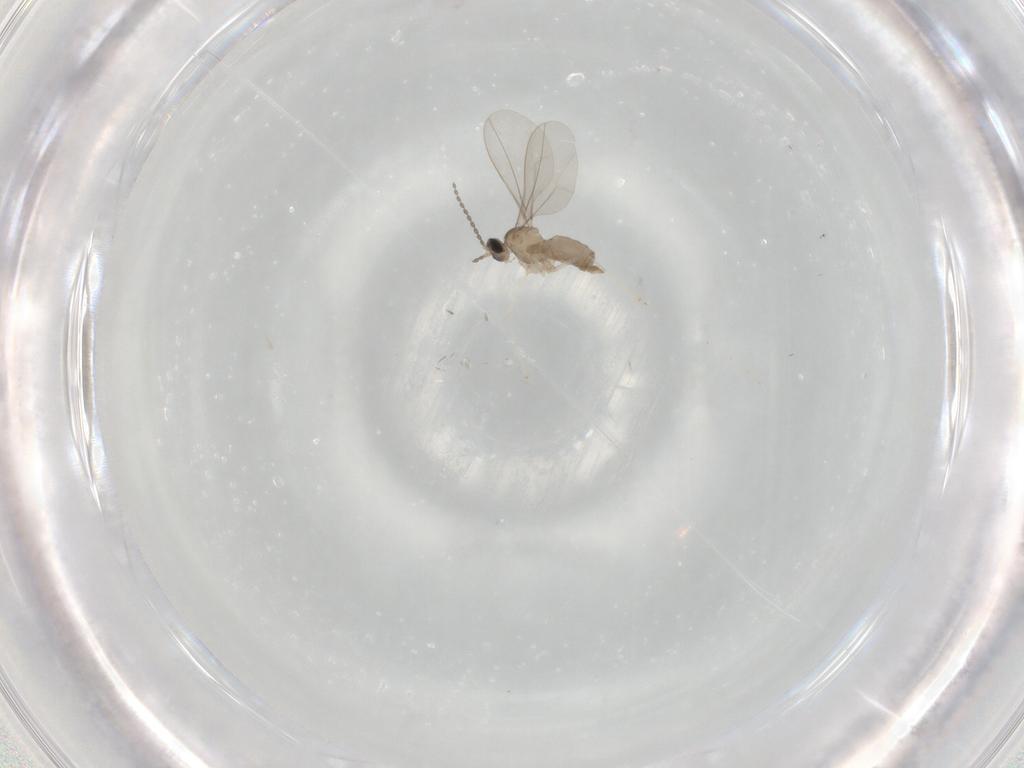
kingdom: Animalia
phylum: Arthropoda
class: Insecta
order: Diptera
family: Cecidomyiidae
